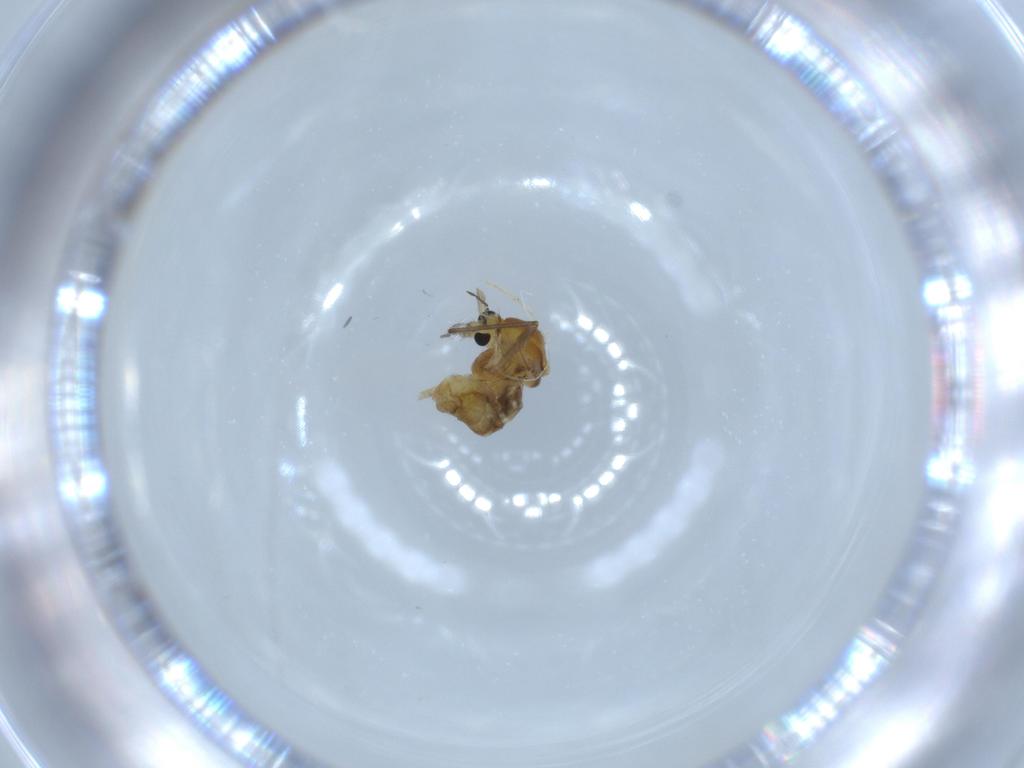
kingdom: Animalia
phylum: Arthropoda
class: Insecta
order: Diptera
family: Chironomidae
